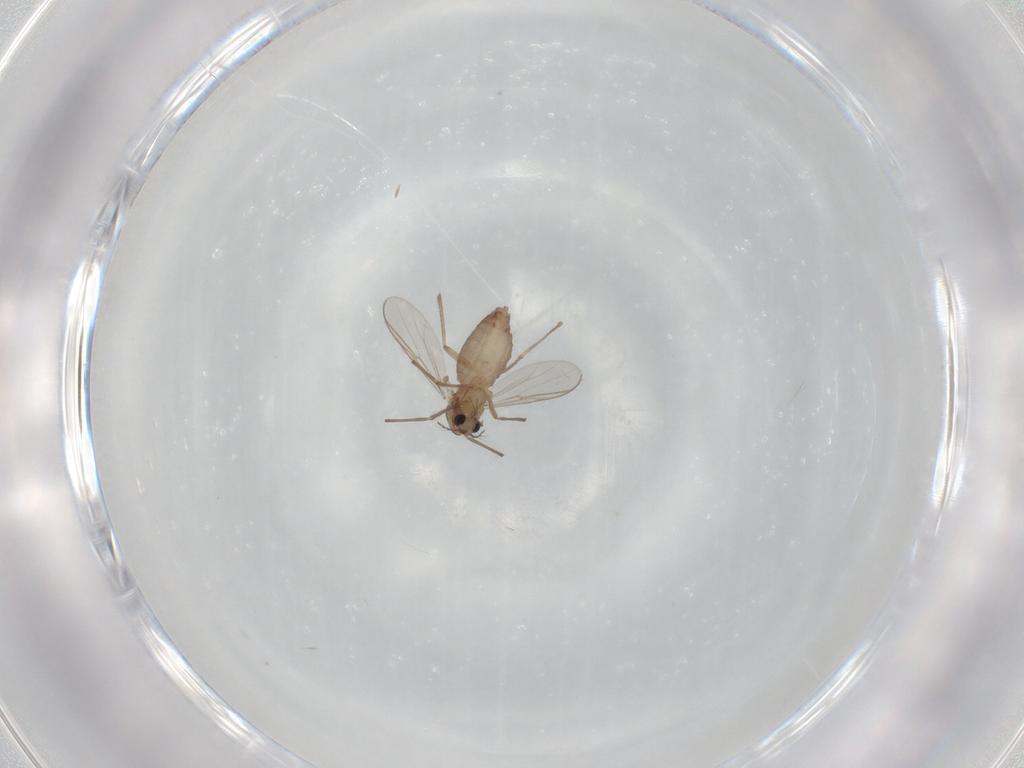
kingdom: Animalia
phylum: Arthropoda
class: Insecta
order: Diptera
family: Chironomidae
